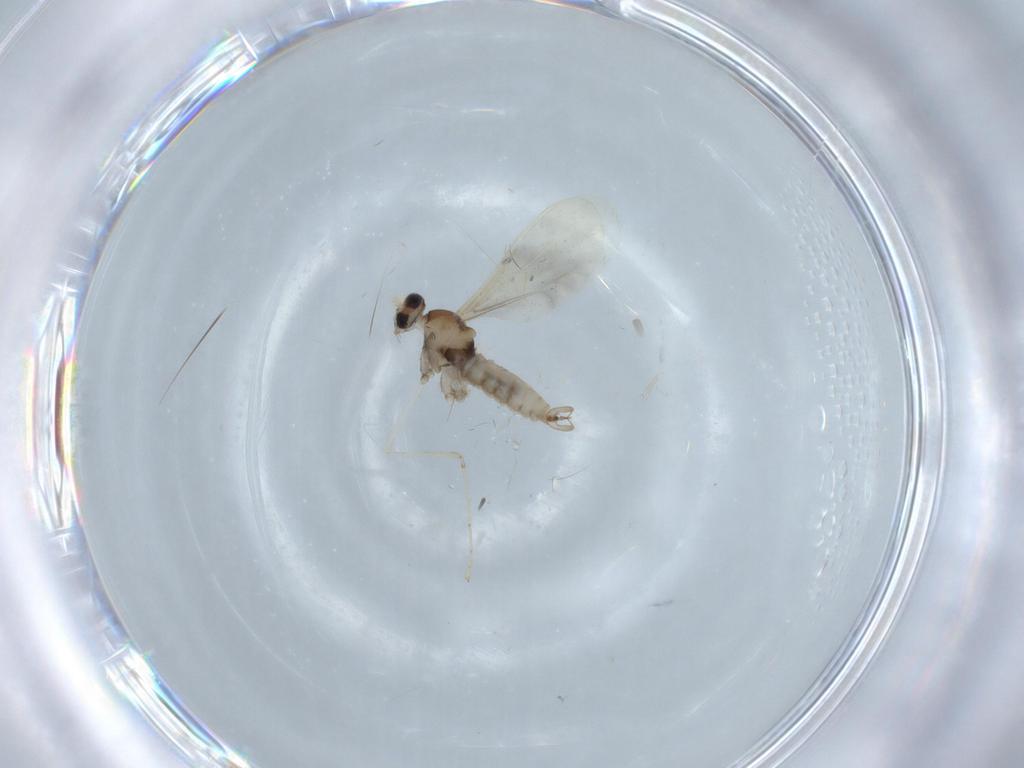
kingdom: Animalia
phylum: Arthropoda
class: Insecta
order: Diptera
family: Cecidomyiidae
